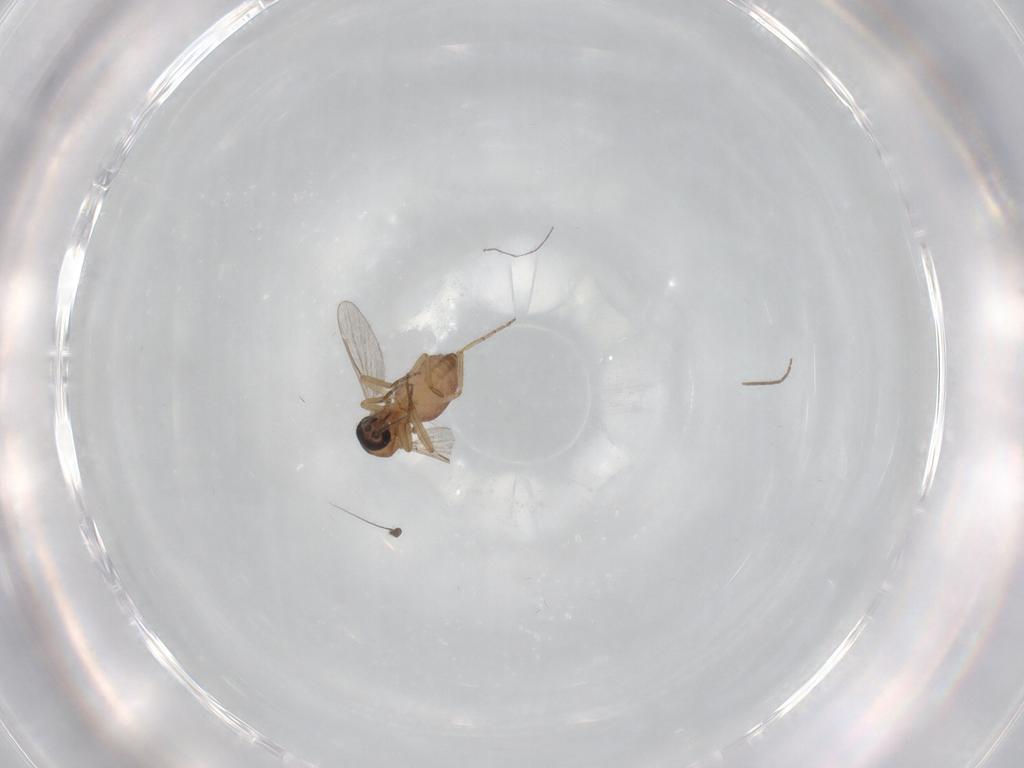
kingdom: Animalia
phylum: Arthropoda
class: Insecta
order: Diptera
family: Chironomidae
